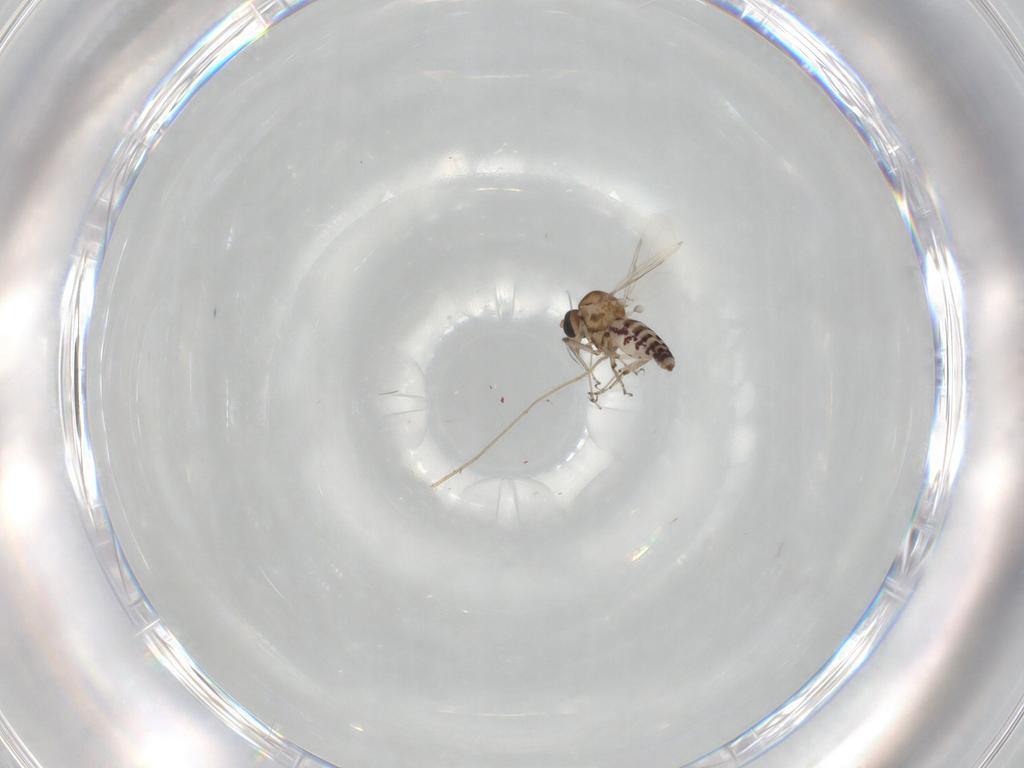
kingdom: Animalia
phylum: Arthropoda
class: Insecta
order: Diptera
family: Ceratopogonidae
